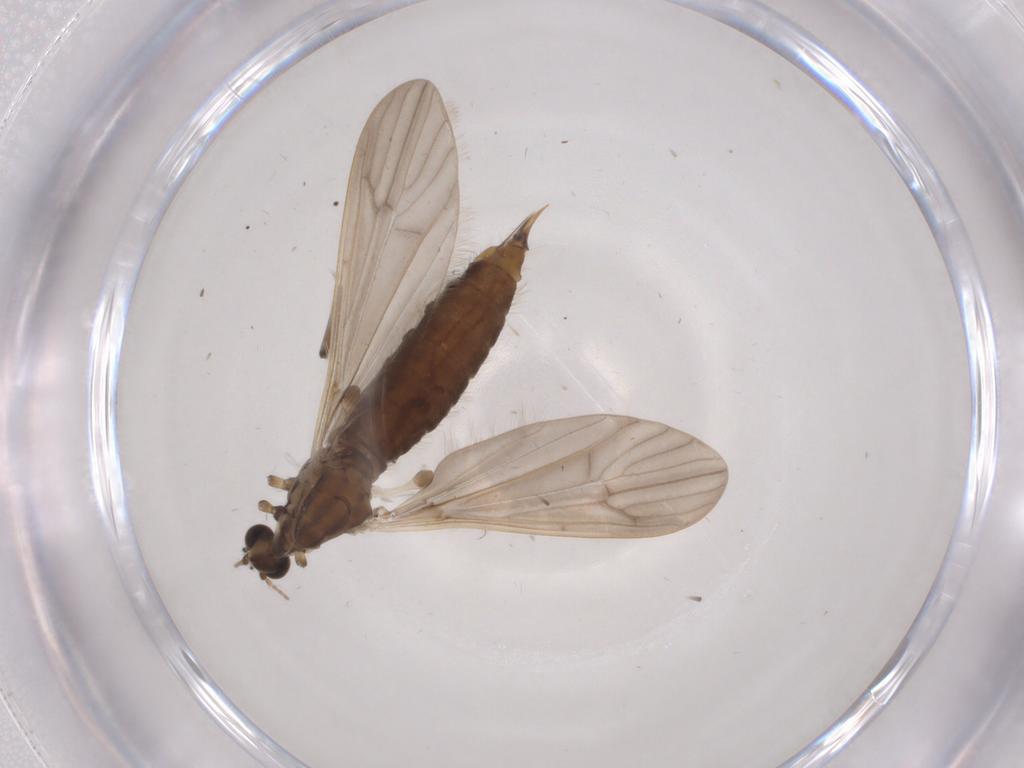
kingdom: Animalia
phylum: Arthropoda
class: Insecta
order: Diptera
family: Limoniidae
